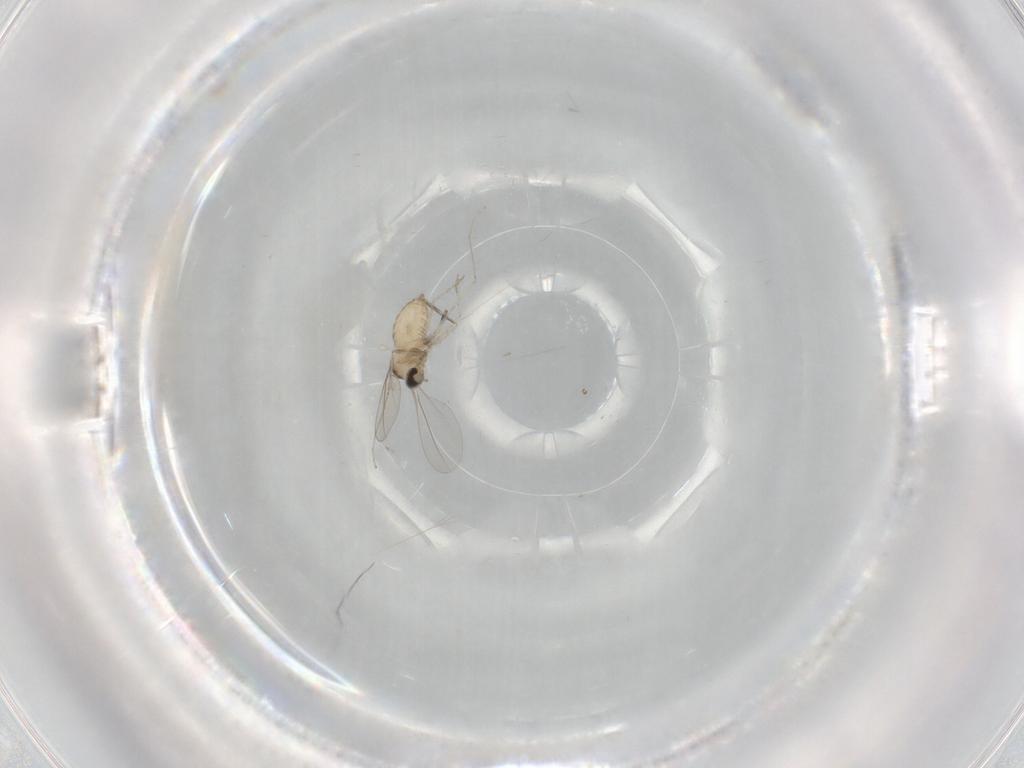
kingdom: Animalia
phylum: Arthropoda
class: Insecta
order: Diptera
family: Cecidomyiidae
